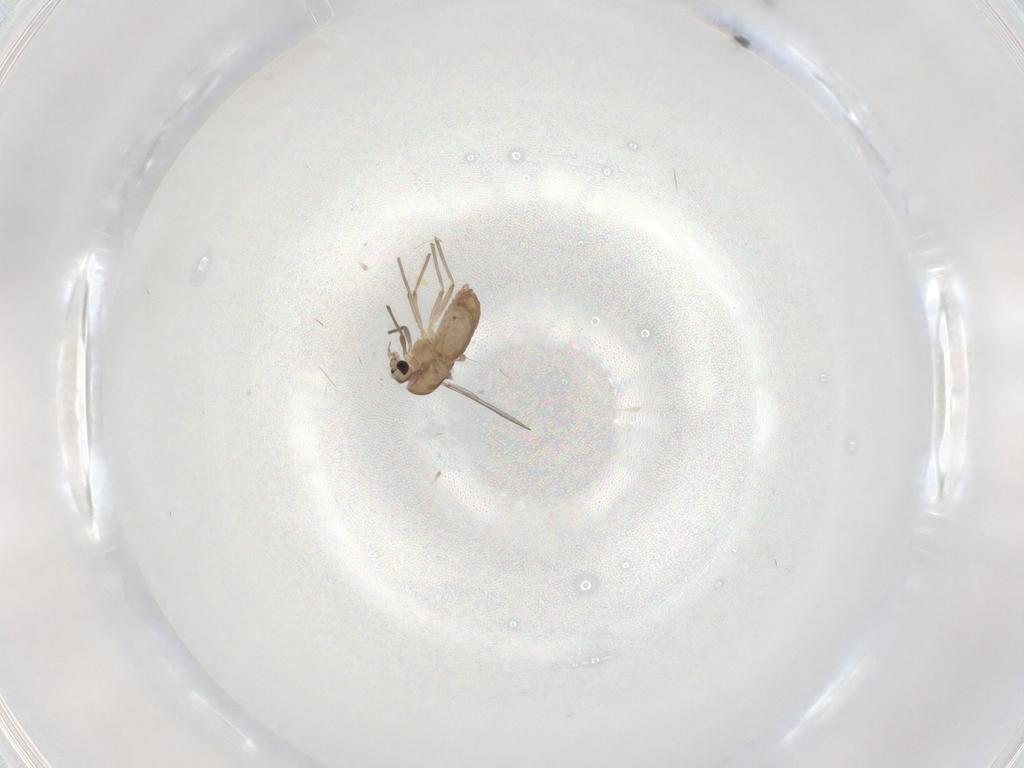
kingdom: Animalia
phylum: Arthropoda
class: Insecta
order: Diptera
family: Chironomidae
